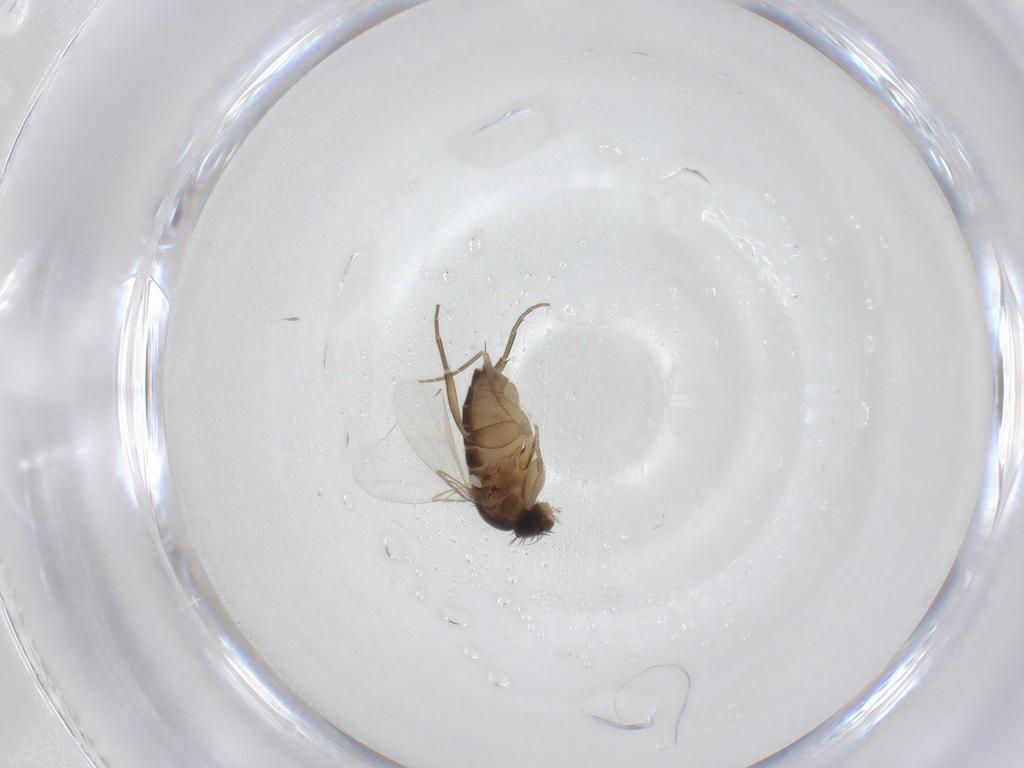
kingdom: Animalia
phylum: Arthropoda
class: Insecta
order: Diptera
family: Phoridae
